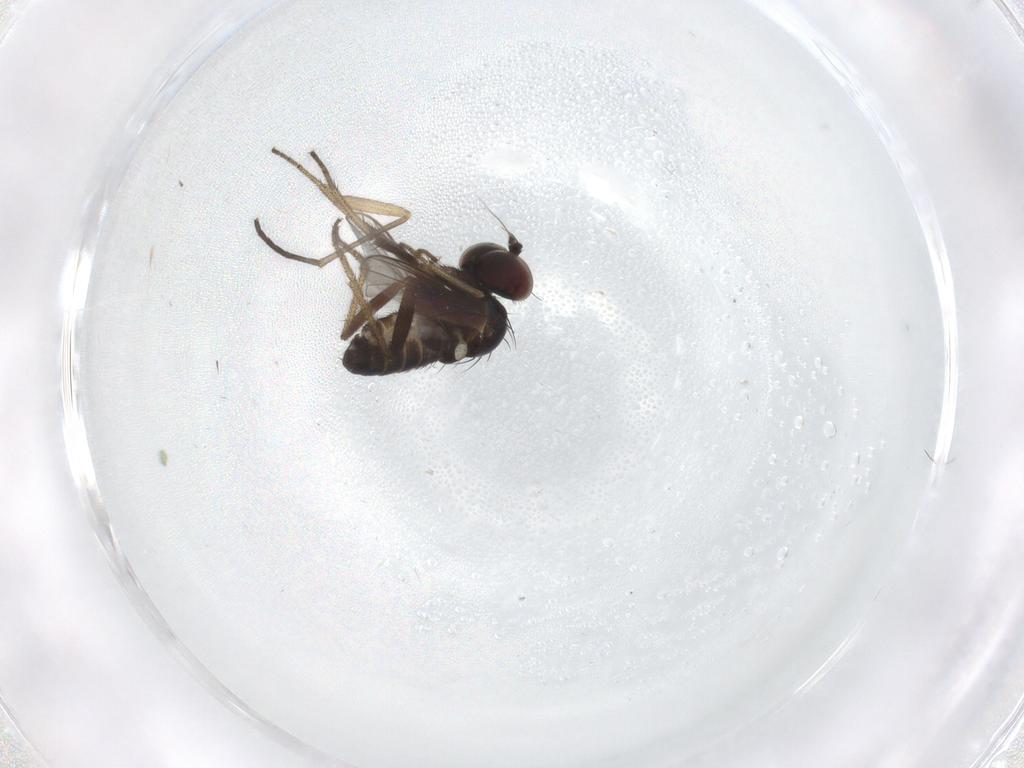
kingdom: Animalia
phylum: Arthropoda
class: Insecta
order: Diptera
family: Sciaridae
